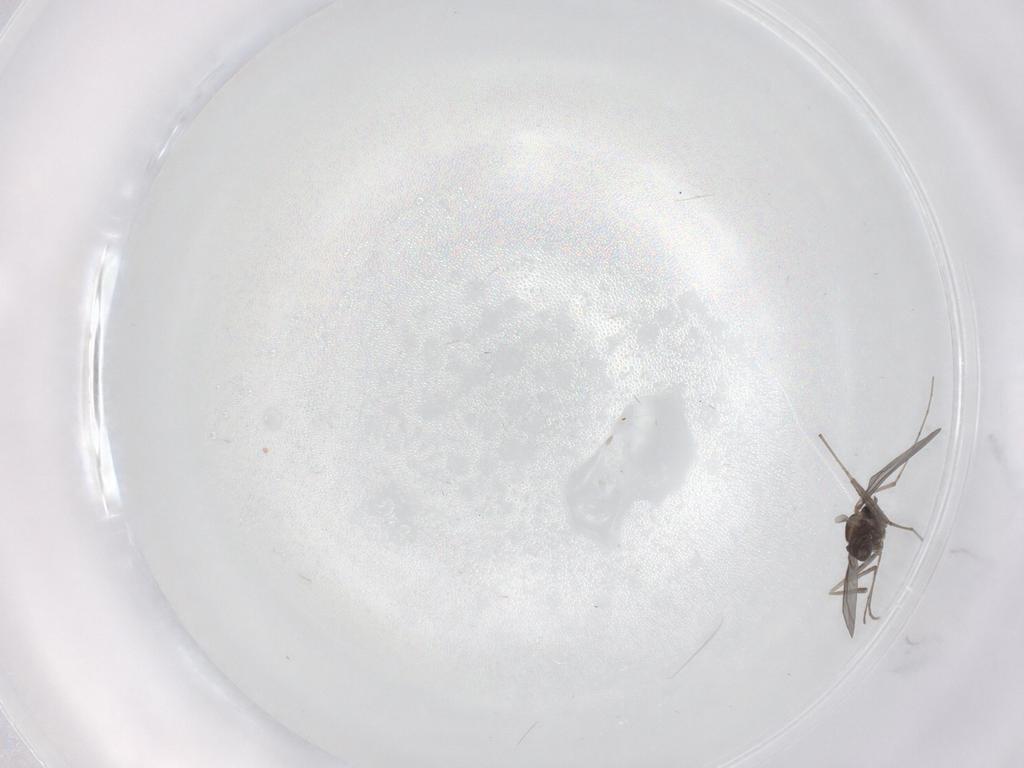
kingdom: Animalia
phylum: Arthropoda
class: Insecta
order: Diptera
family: Cecidomyiidae
